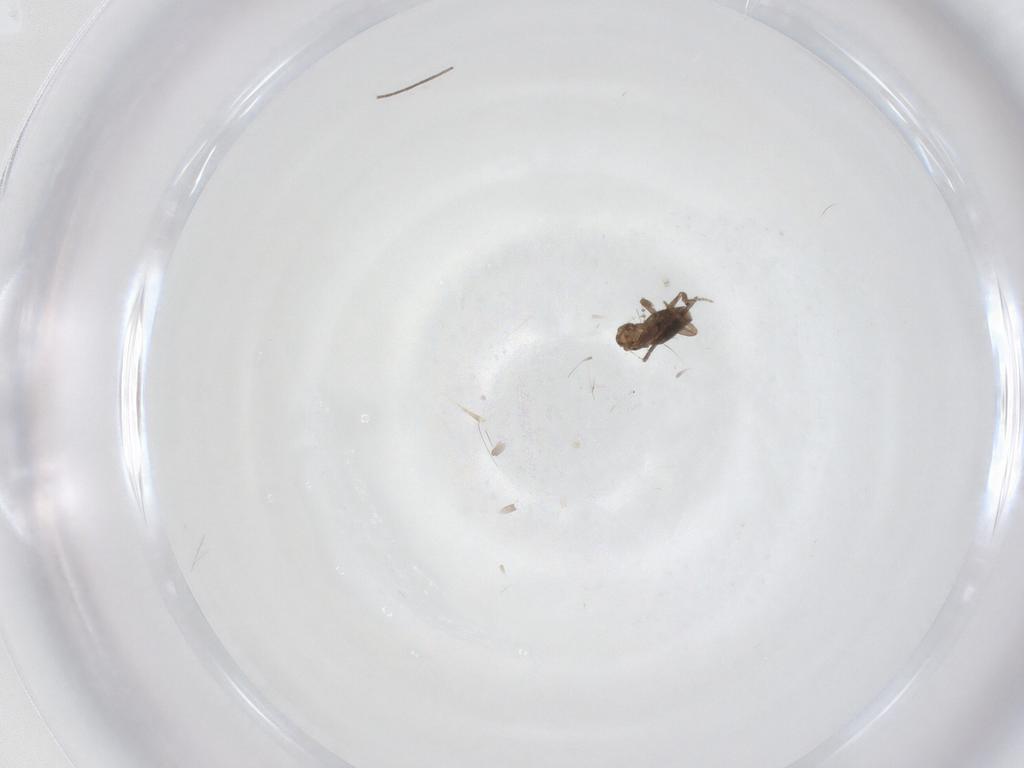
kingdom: Animalia
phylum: Arthropoda
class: Insecta
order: Diptera
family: Phoridae
